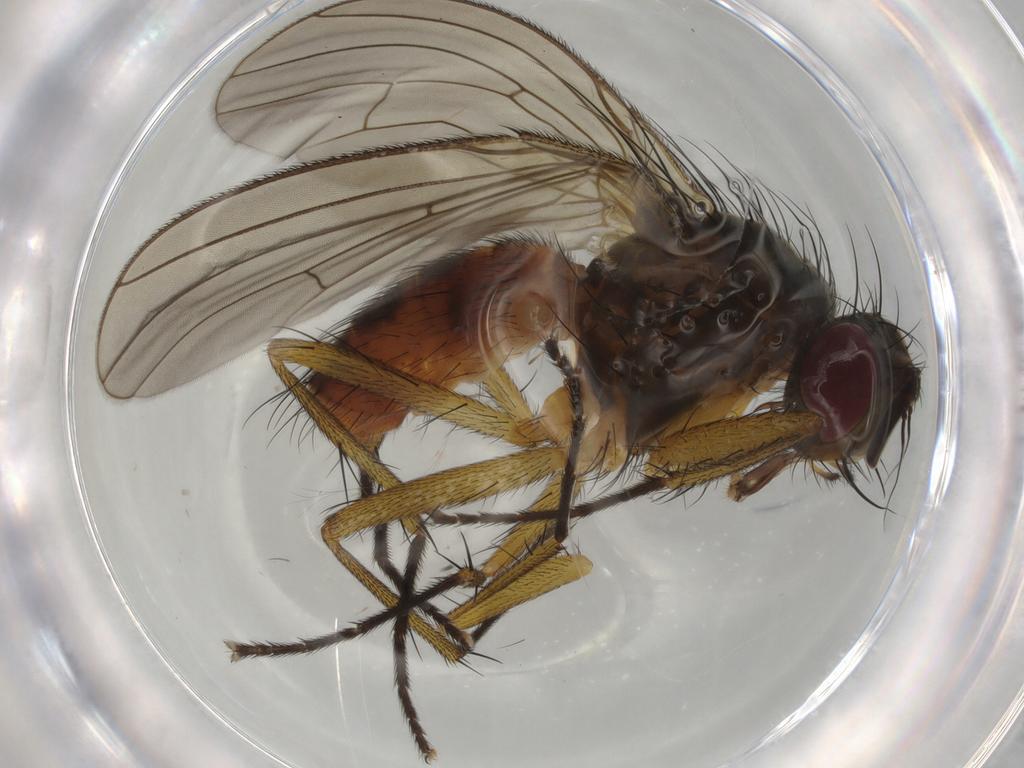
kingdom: Animalia
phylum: Arthropoda
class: Insecta
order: Diptera
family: Muscidae
